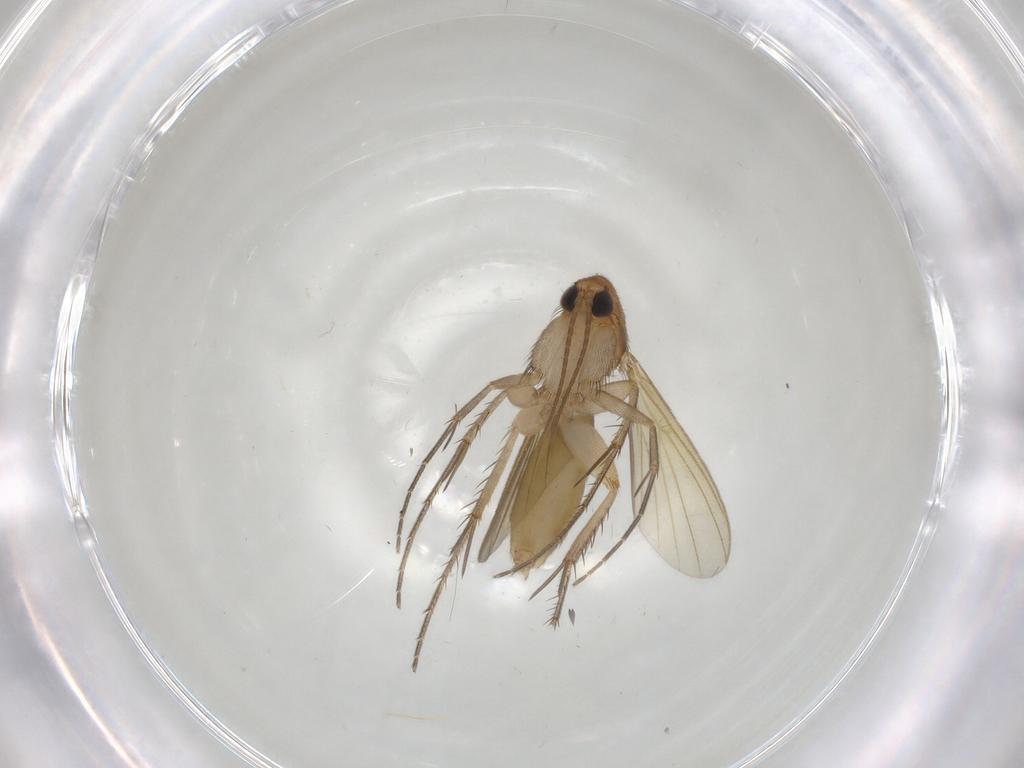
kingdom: Animalia
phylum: Arthropoda
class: Insecta
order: Diptera
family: Mycetophilidae
